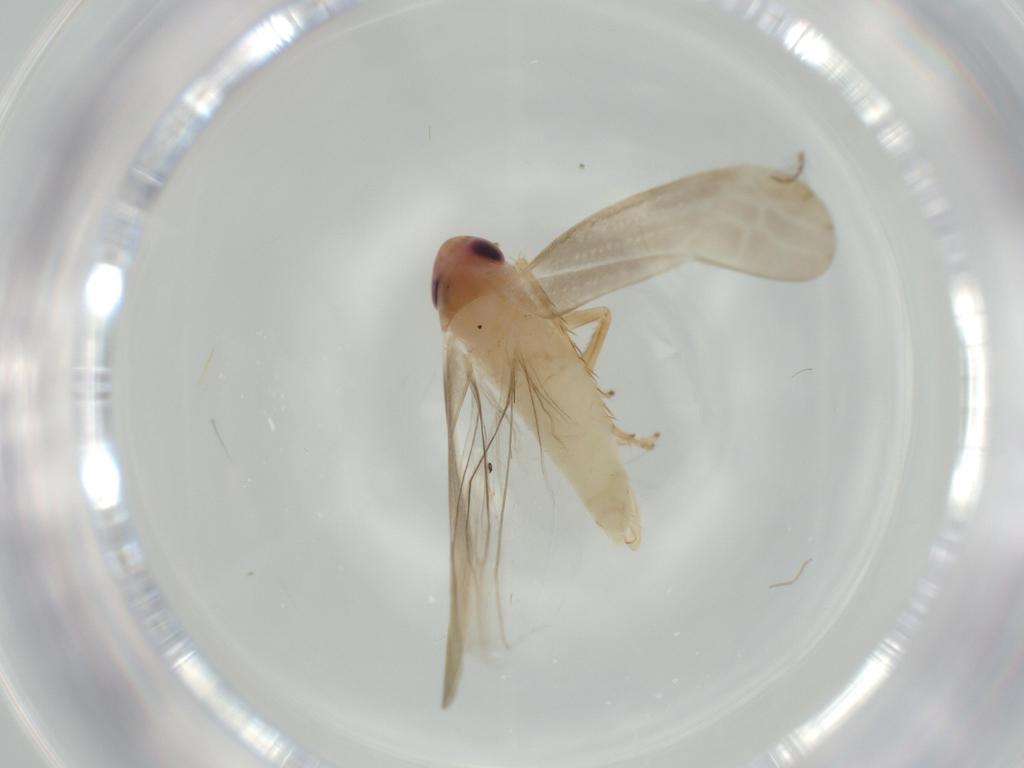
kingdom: Animalia
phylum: Arthropoda
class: Insecta
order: Hemiptera
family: Cicadellidae
